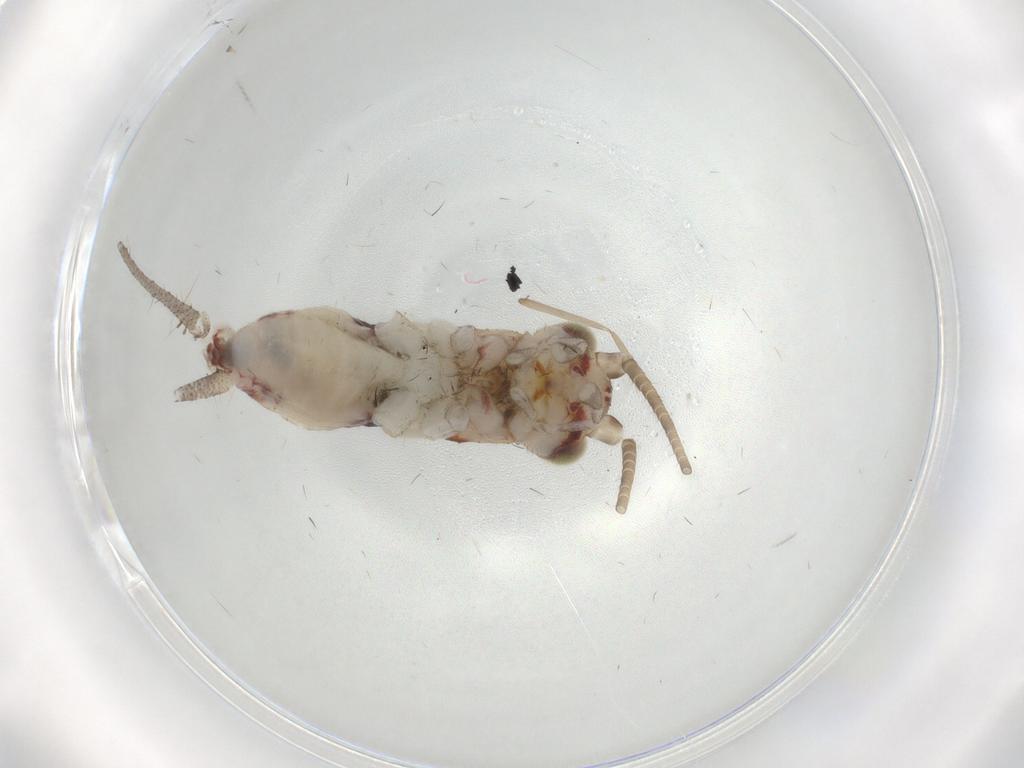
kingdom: Animalia
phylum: Arthropoda
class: Insecta
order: Orthoptera
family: Trigonidiidae
